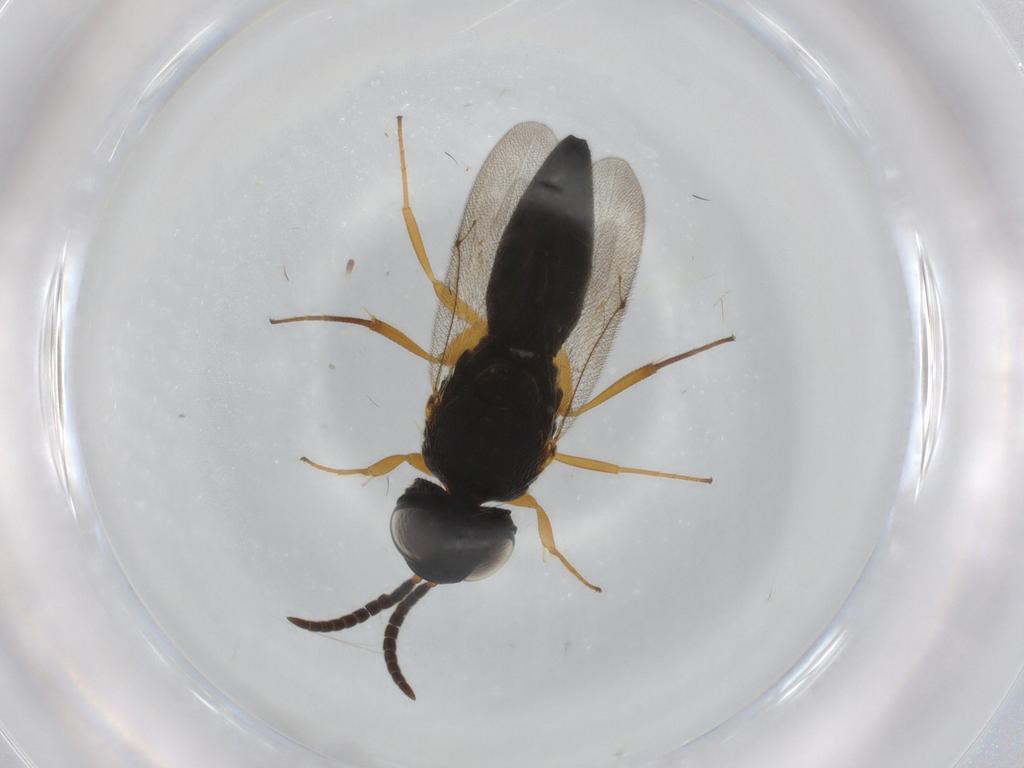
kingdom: Animalia
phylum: Arthropoda
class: Insecta
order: Hymenoptera
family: Scelionidae
